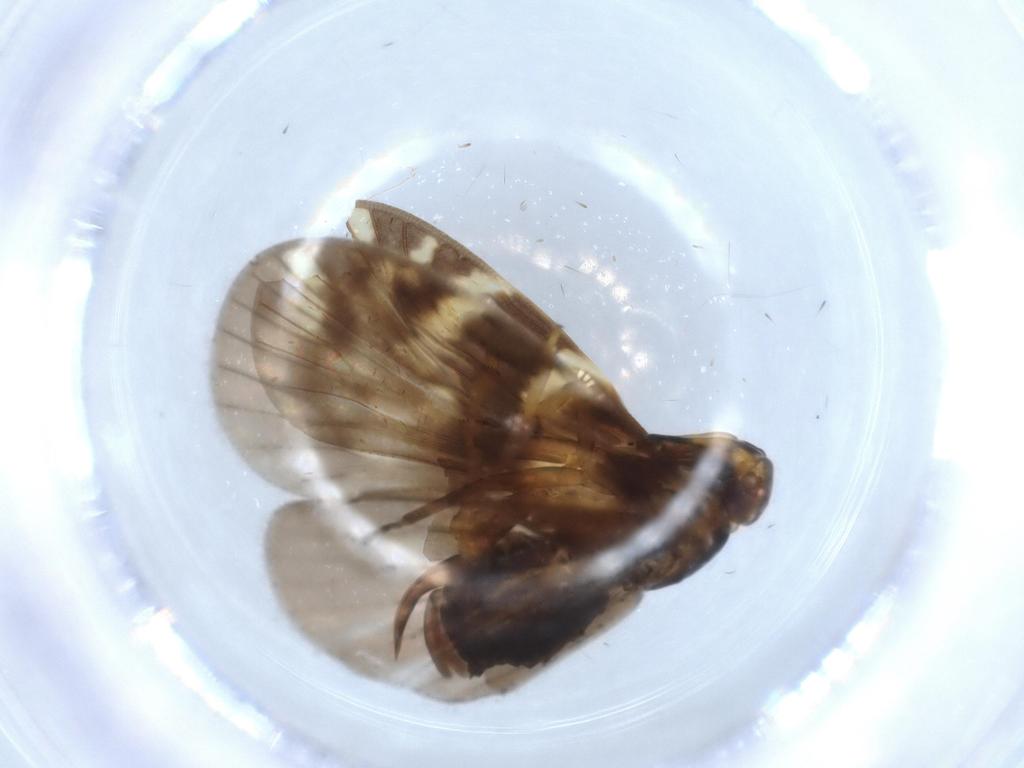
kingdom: Animalia
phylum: Arthropoda
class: Insecta
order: Hemiptera
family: Cixiidae
